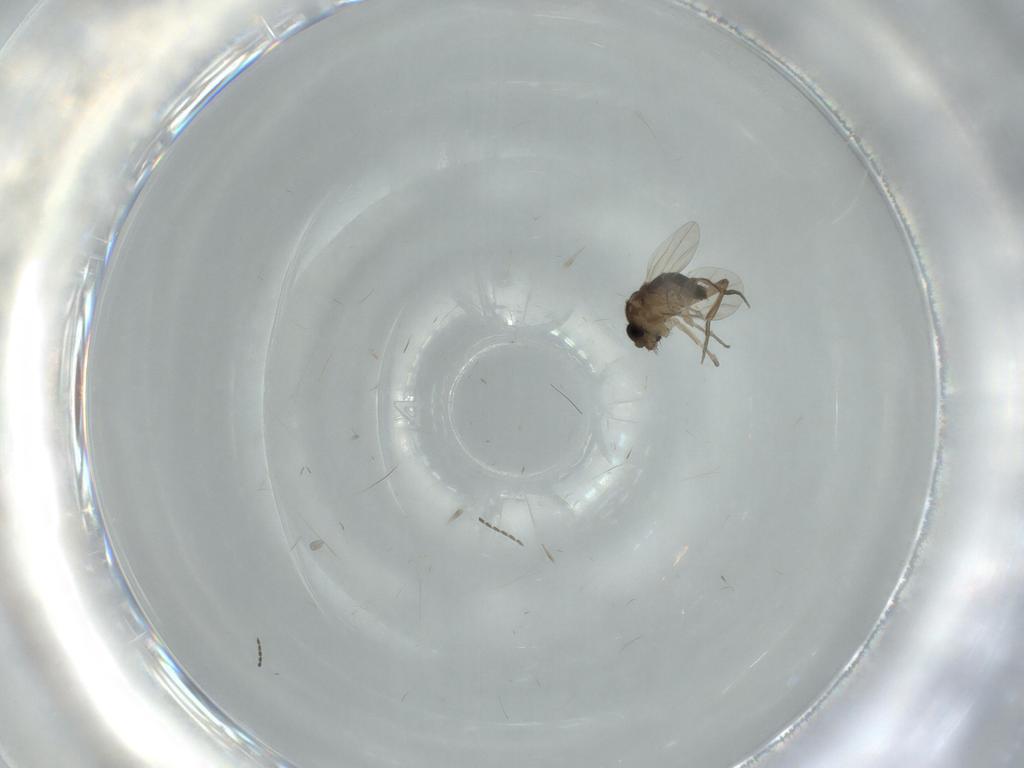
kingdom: Animalia
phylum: Arthropoda
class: Insecta
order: Diptera
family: Phoridae
